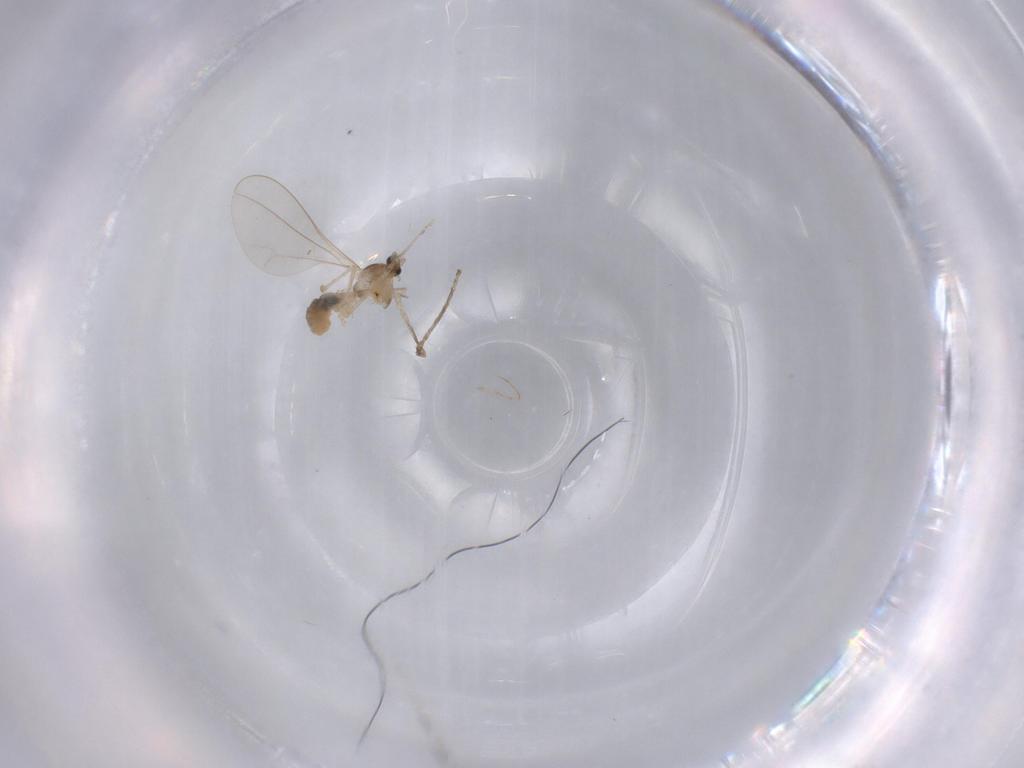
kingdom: Animalia
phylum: Arthropoda
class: Insecta
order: Diptera
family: Cecidomyiidae
